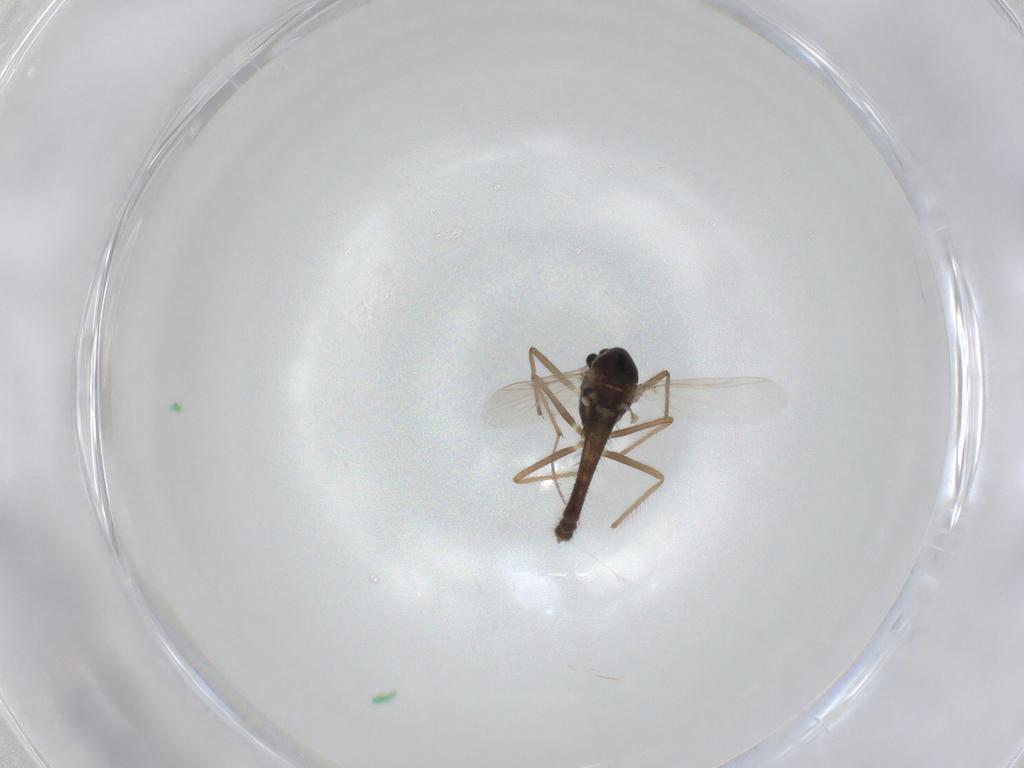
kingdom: Animalia
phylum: Arthropoda
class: Insecta
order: Diptera
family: Chironomidae
